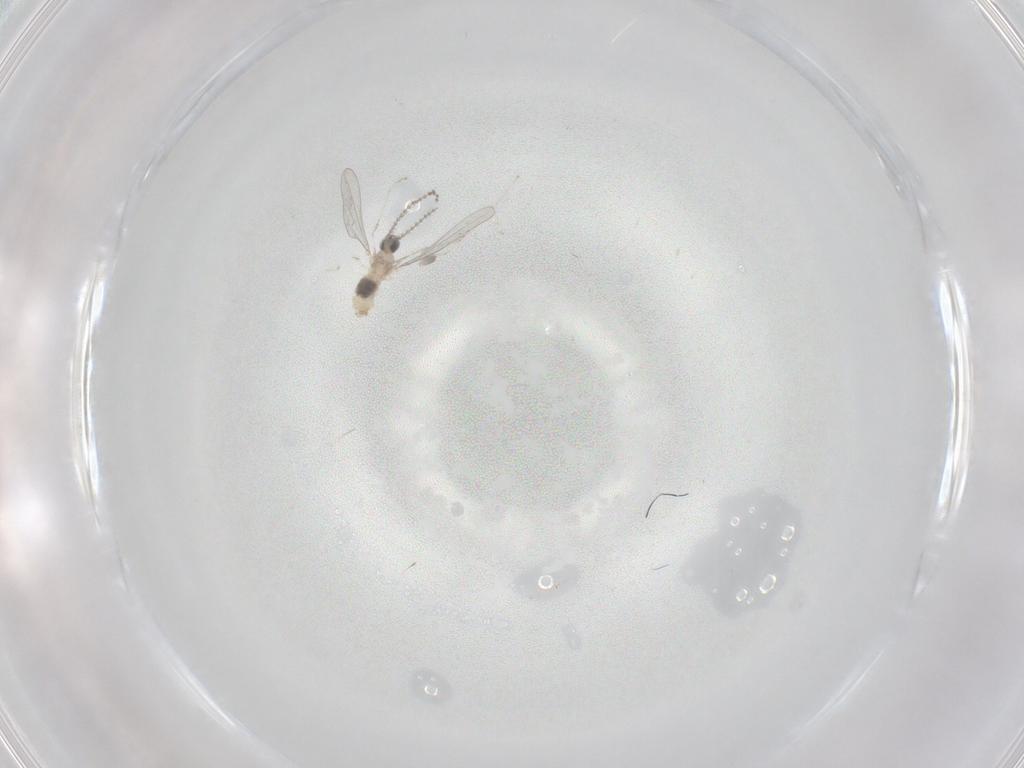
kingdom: Animalia
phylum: Arthropoda
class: Insecta
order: Diptera
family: Cecidomyiidae
